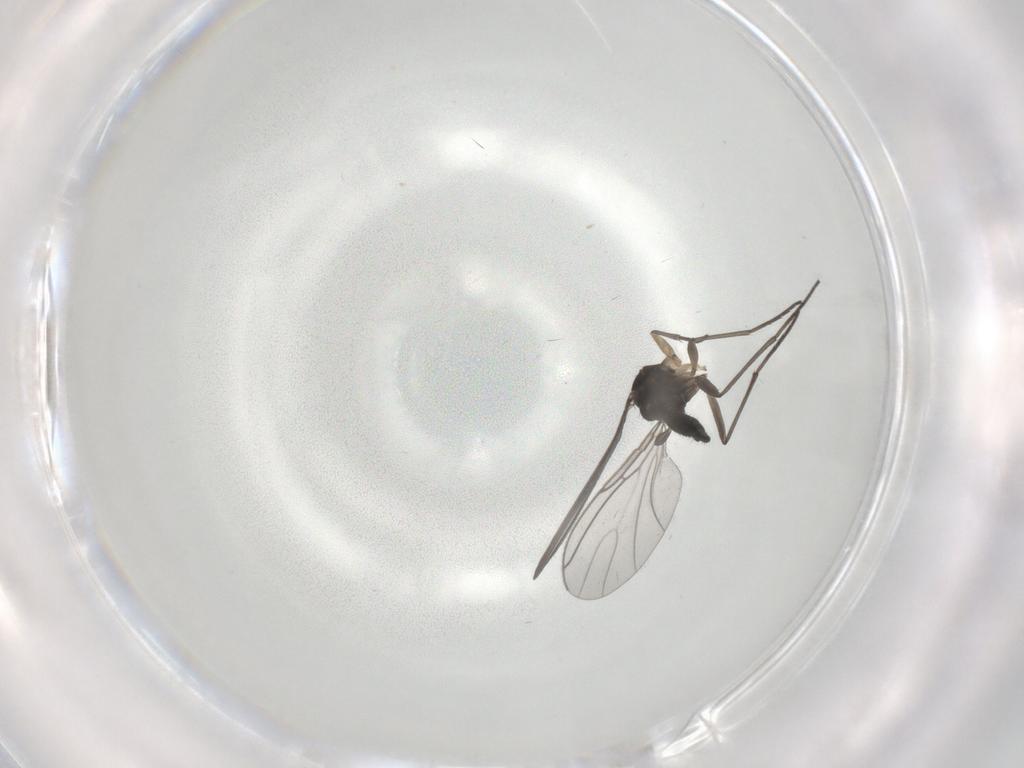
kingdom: Animalia
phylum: Arthropoda
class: Insecta
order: Diptera
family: Sciaridae
